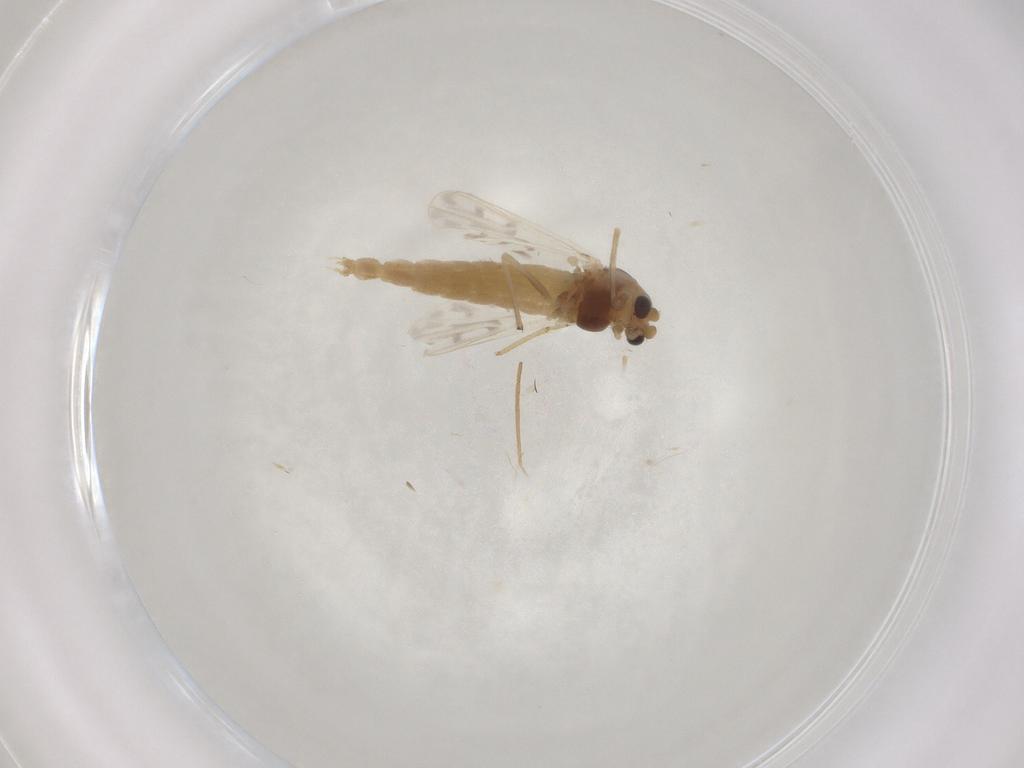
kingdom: Animalia
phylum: Arthropoda
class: Insecta
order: Diptera
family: Chironomidae
